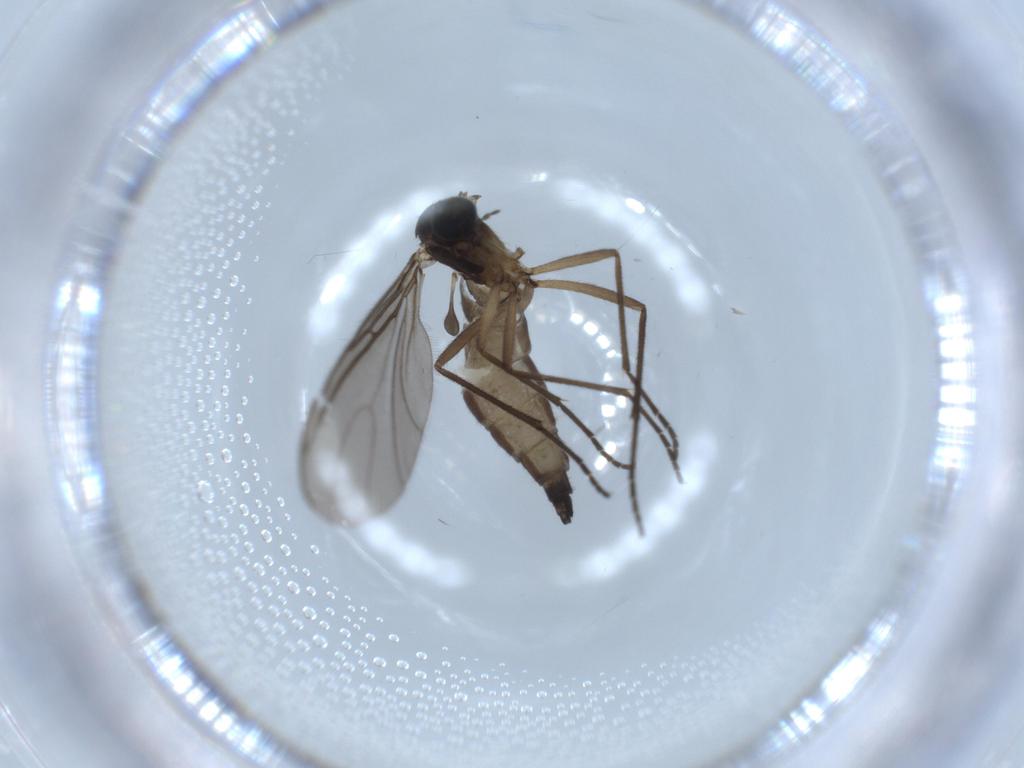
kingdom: Animalia
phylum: Arthropoda
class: Insecta
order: Diptera
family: Sciaridae
